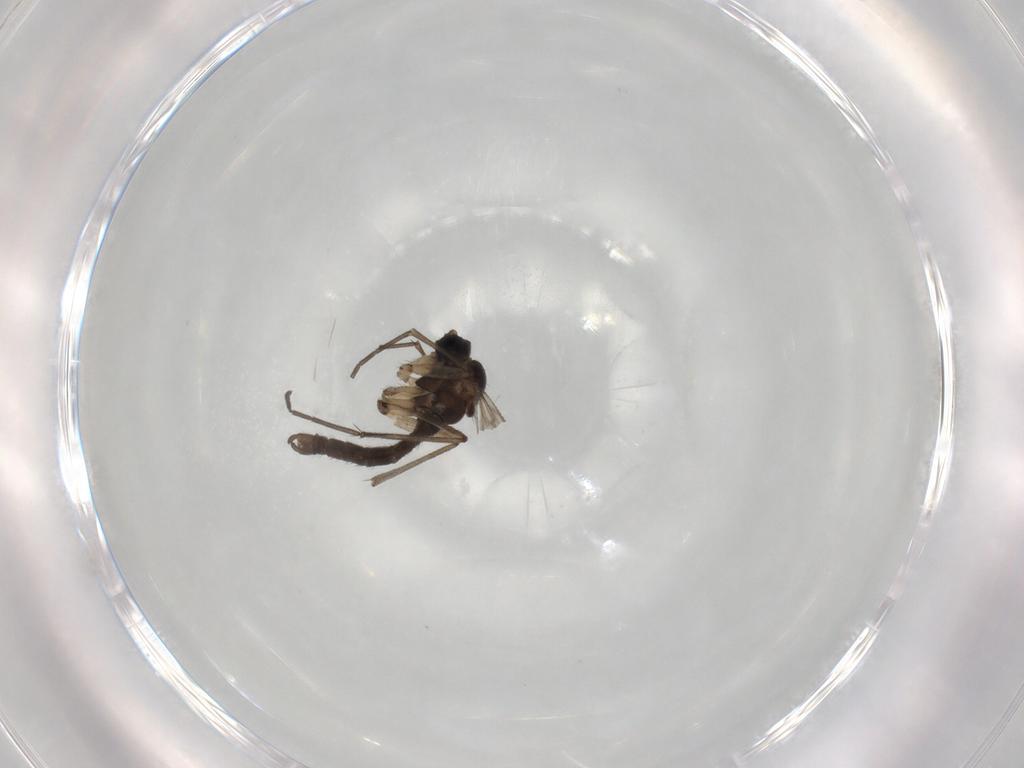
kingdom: Animalia
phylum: Arthropoda
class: Insecta
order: Diptera
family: Sciaridae
